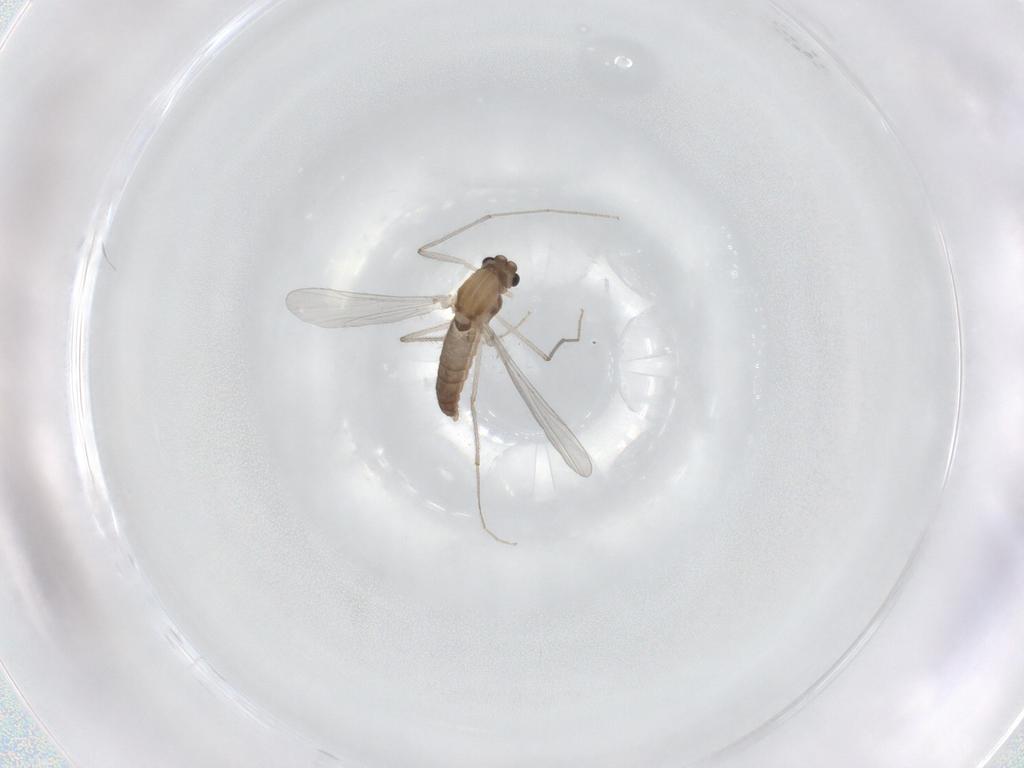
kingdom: Animalia
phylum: Arthropoda
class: Insecta
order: Diptera
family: Chironomidae
